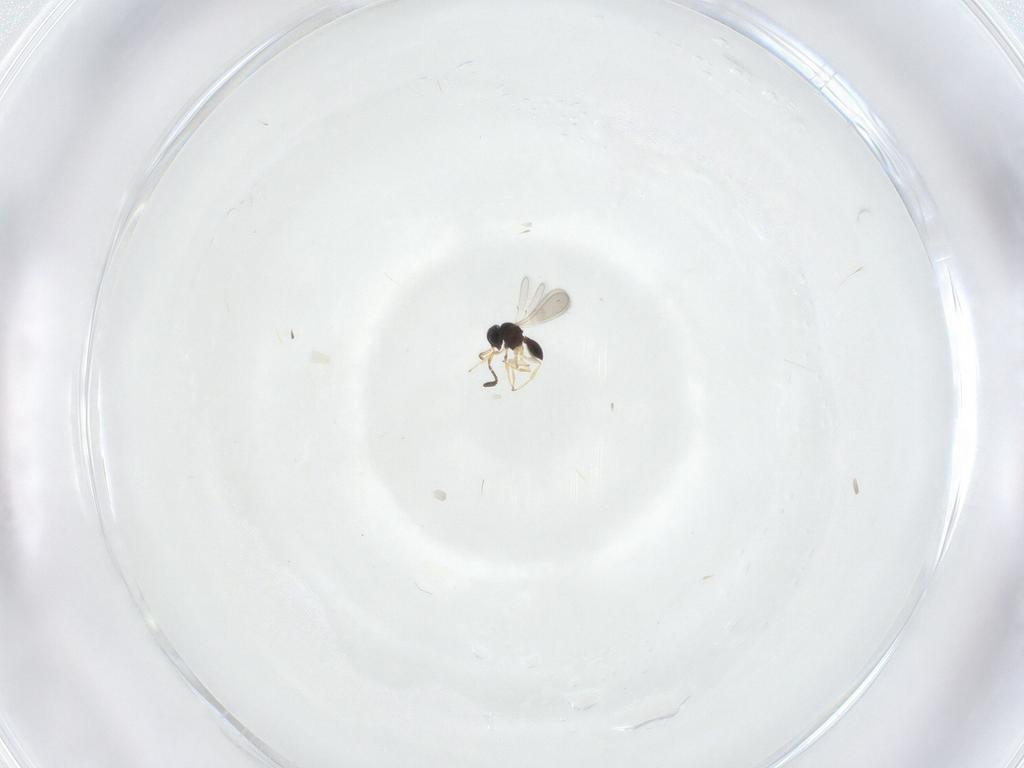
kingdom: Animalia
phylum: Arthropoda
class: Insecta
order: Hymenoptera
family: Scelionidae
